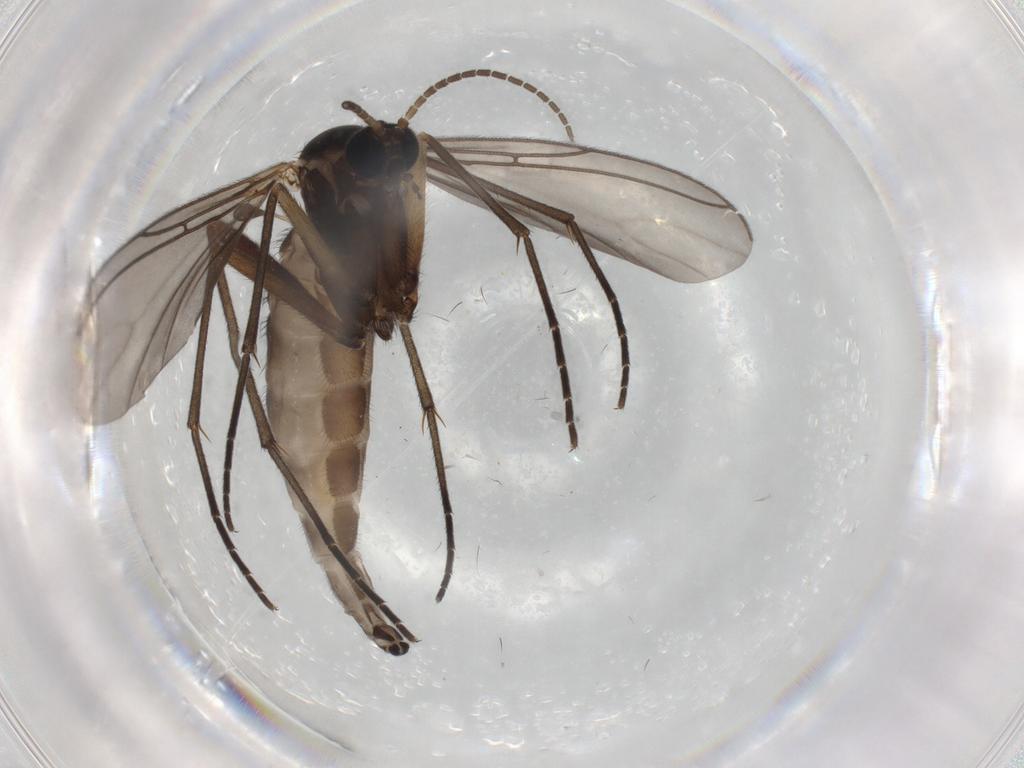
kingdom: Animalia
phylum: Arthropoda
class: Insecta
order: Diptera
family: Sciaridae
